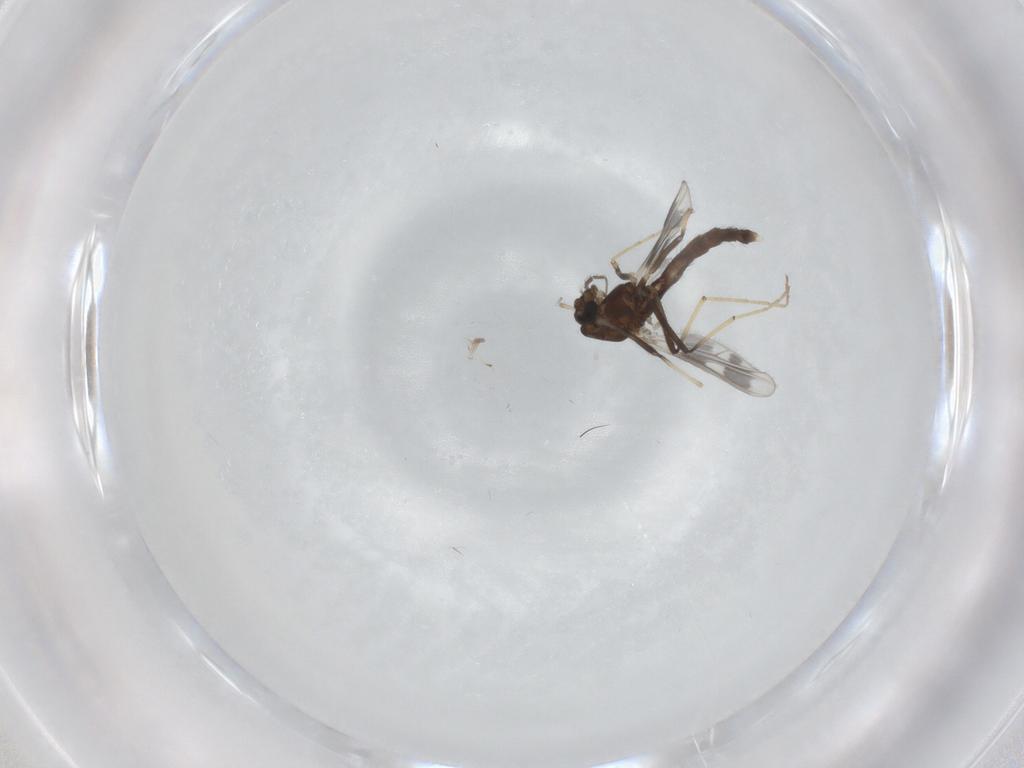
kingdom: Animalia
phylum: Arthropoda
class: Insecta
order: Diptera
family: Chironomidae
